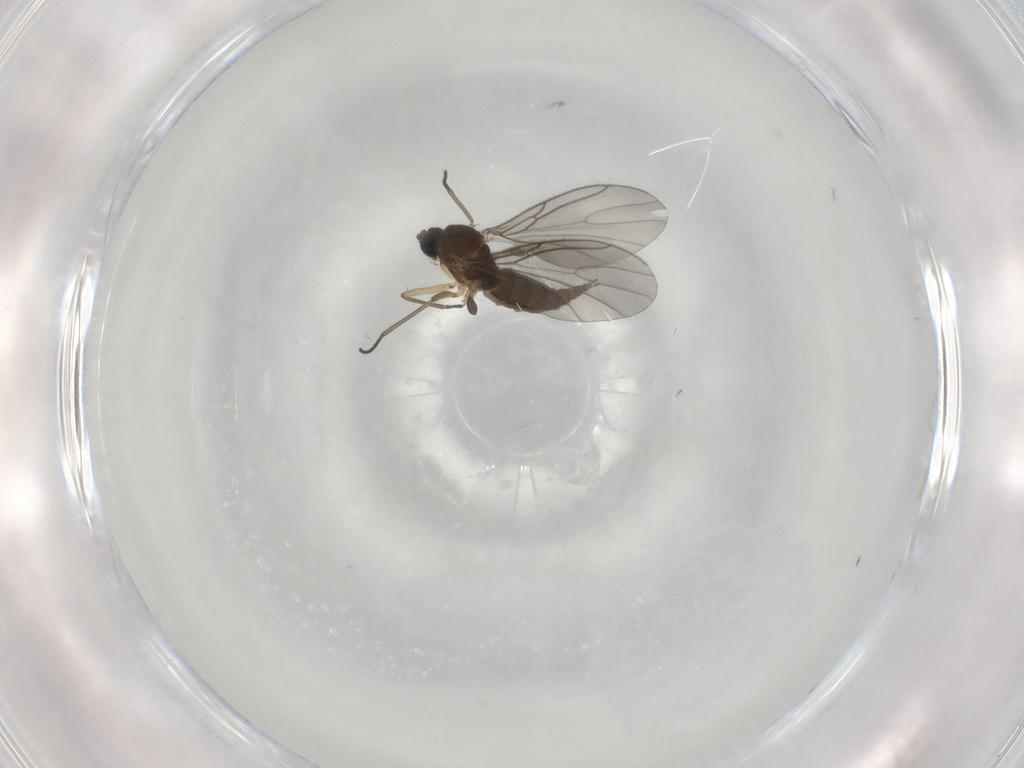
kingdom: Animalia
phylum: Arthropoda
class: Insecta
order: Diptera
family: Sciaridae
